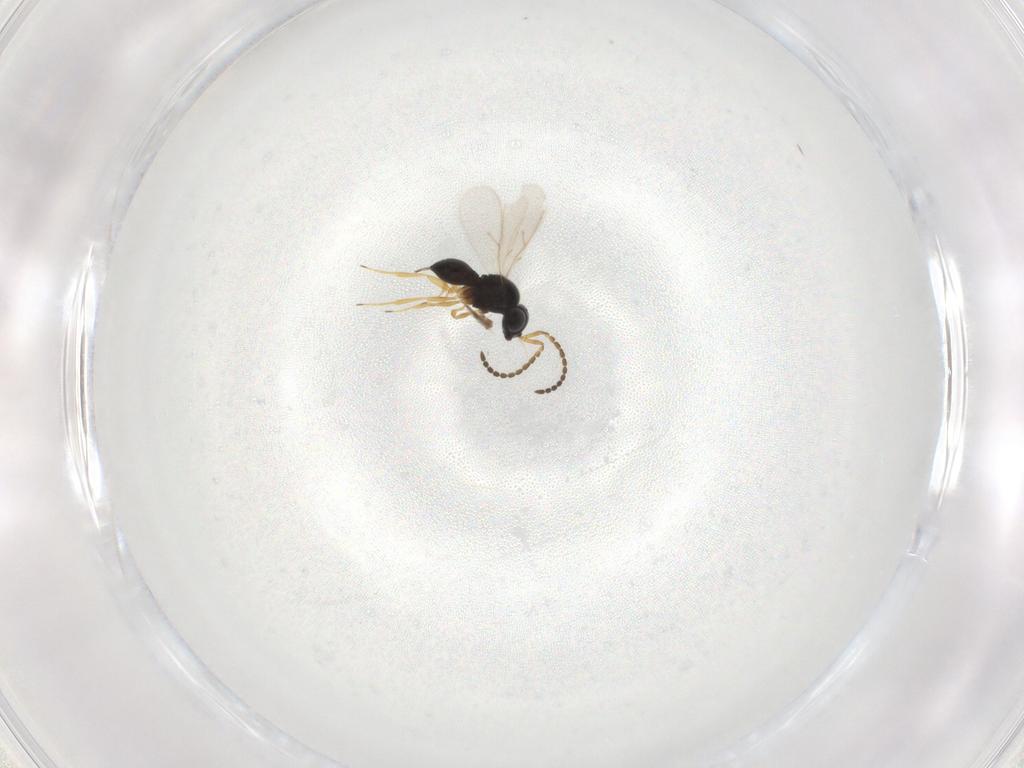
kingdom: Animalia
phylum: Arthropoda
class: Insecta
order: Hymenoptera
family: Scelionidae
